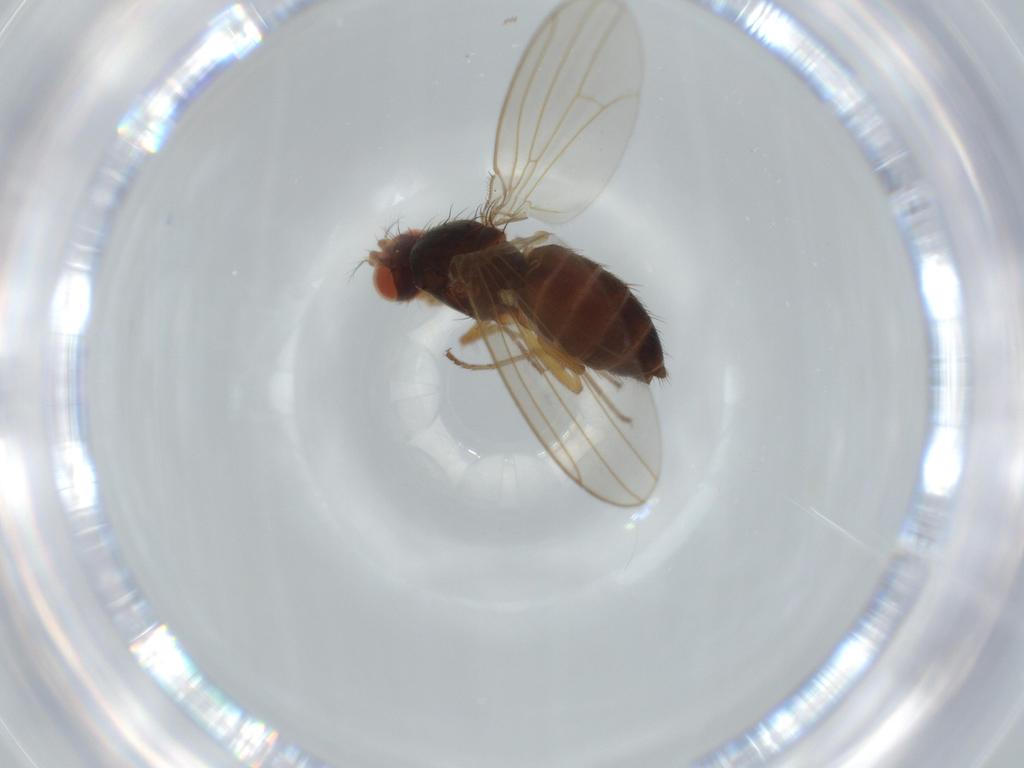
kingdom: Animalia
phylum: Arthropoda
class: Insecta
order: Diptera
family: Drosophilidae
